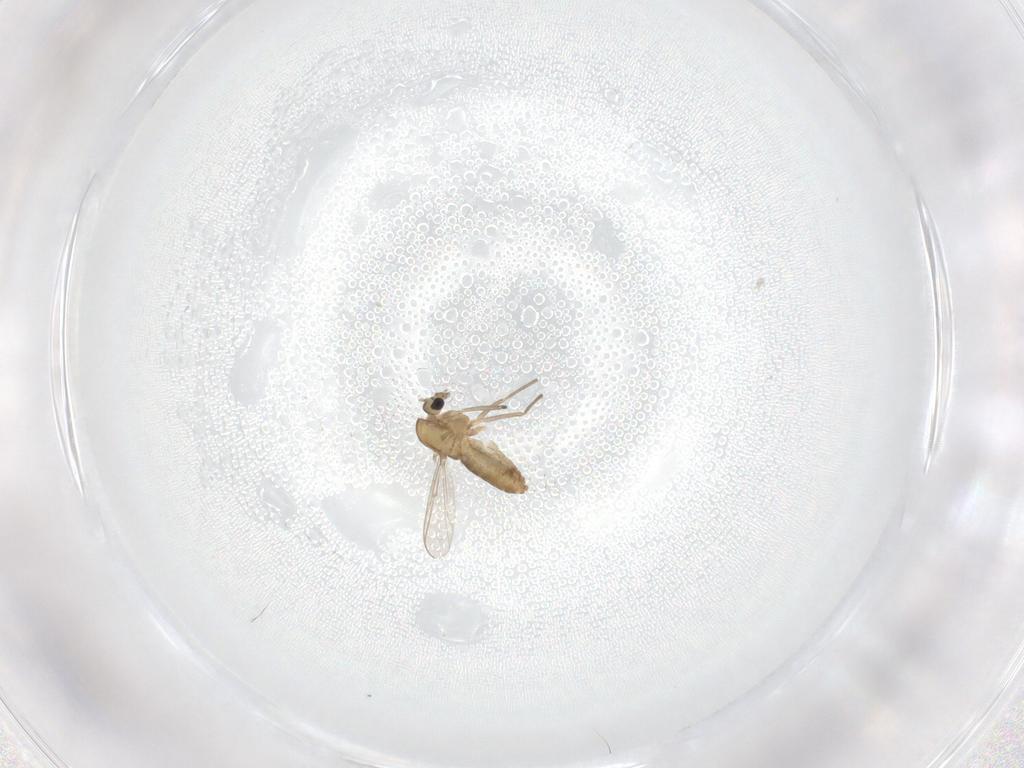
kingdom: Animalia
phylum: Arthropoda
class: Insecta
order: Diptera
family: Chironomidae
